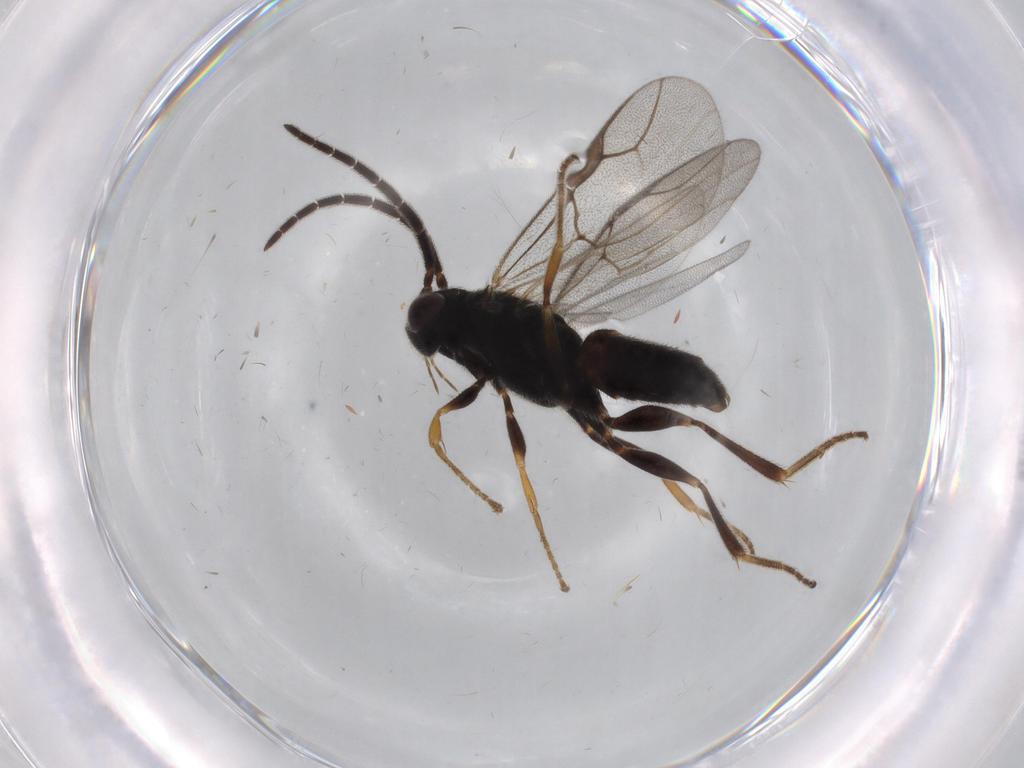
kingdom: Animalia
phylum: Arthropoda
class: Insecta
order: Hymenoptera
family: Dryinidae
